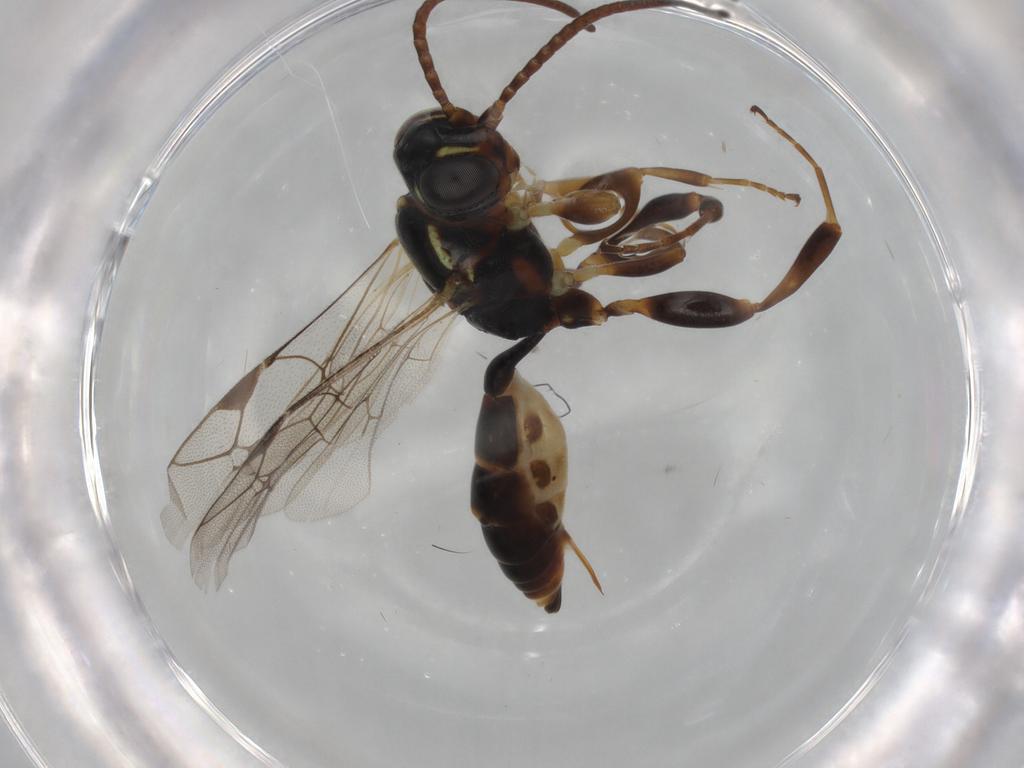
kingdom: Animalia
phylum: Arthropoda
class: Insecta
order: Hymenoptera
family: Ichneumonidae
